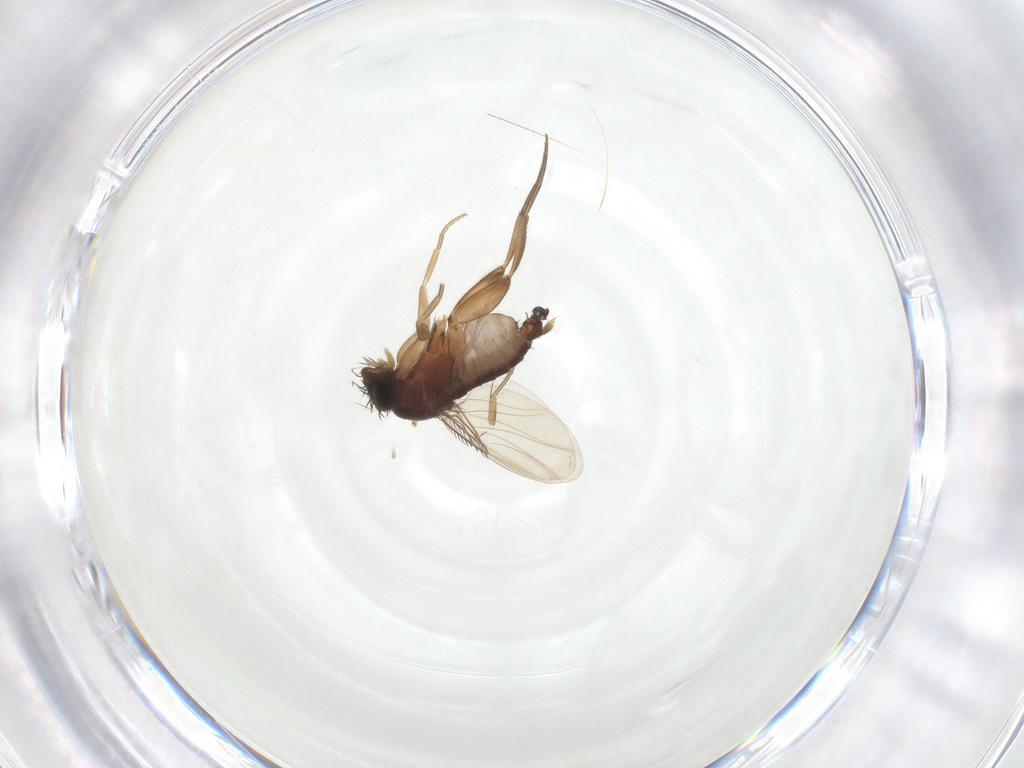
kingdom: Animalia
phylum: Arthropoda
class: Insecta
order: Diptera
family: Phoridae
